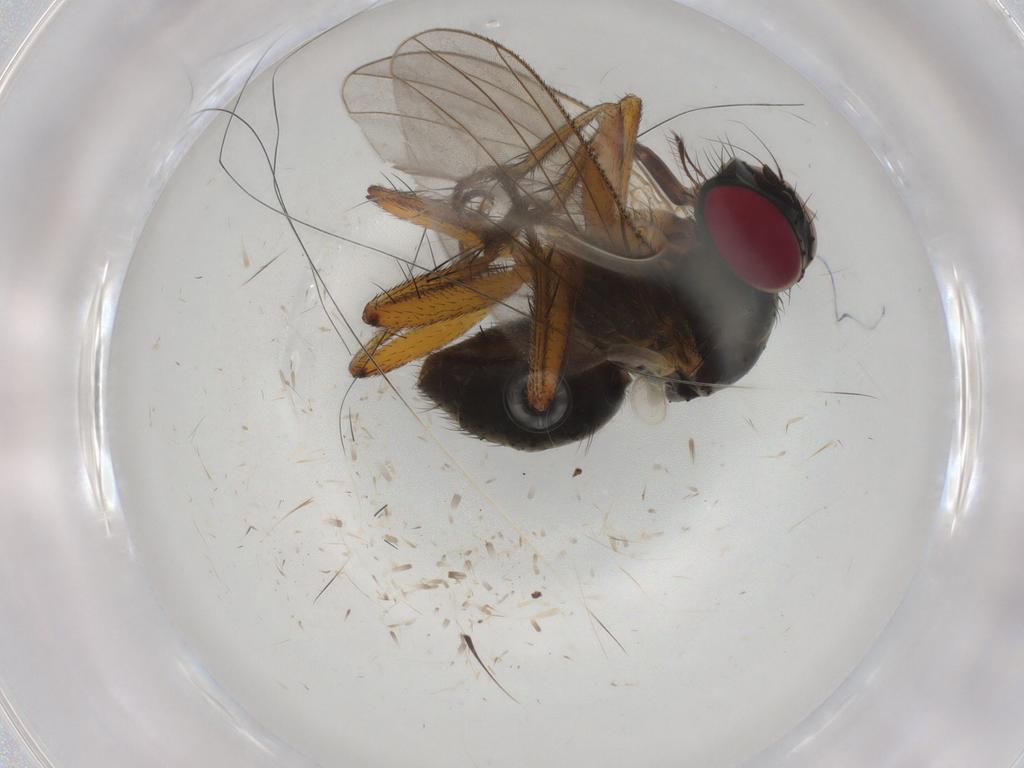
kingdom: Animalia
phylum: Arthropoda
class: Insecta
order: Diptera
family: Muscidae
